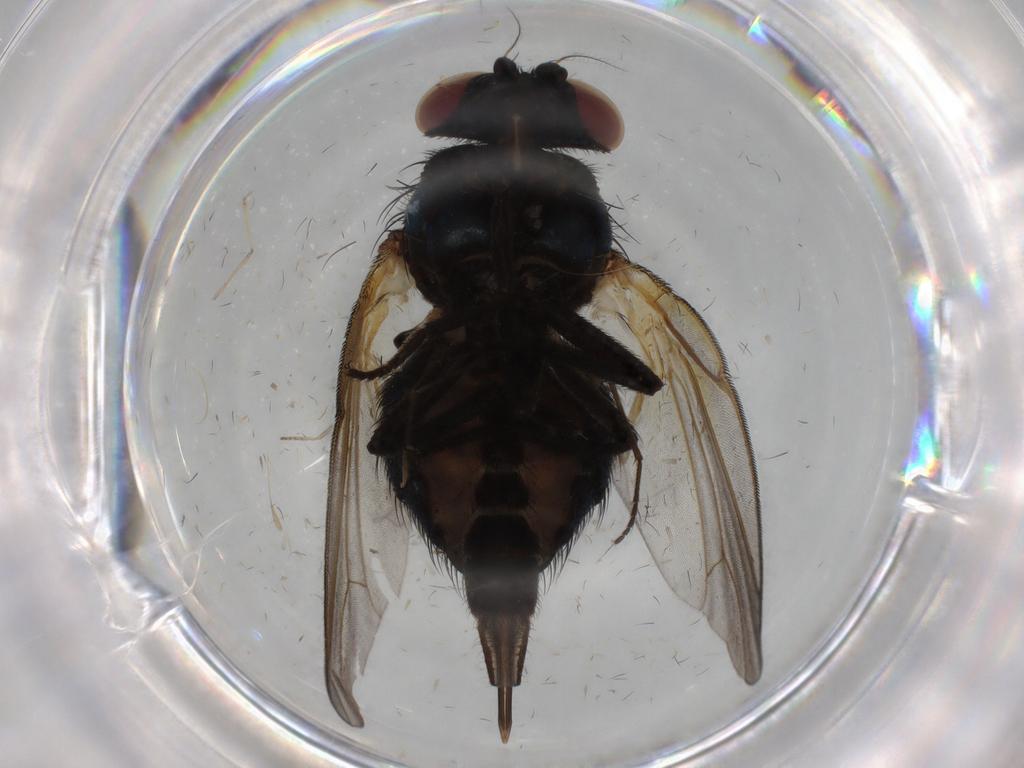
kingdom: Animalia
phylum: Arthropoda
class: Insecta
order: Diptera
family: Lonchaeidae
